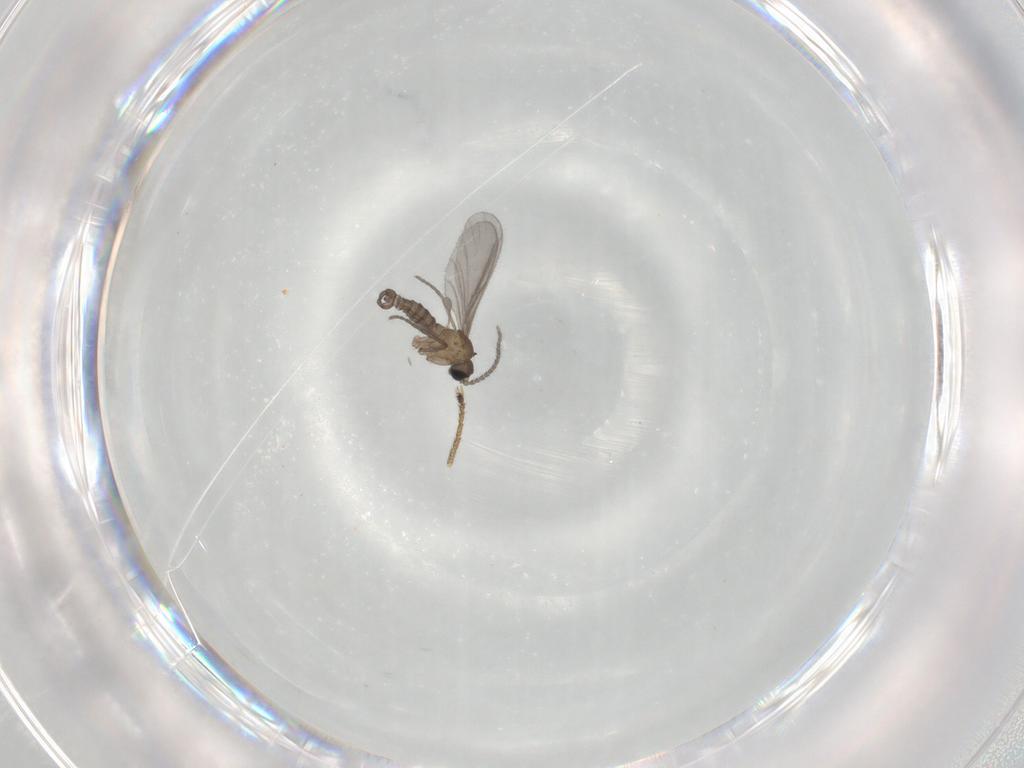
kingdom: Animalia
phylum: Arthropoda
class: Insecta
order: Diptera
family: Sciaridae
